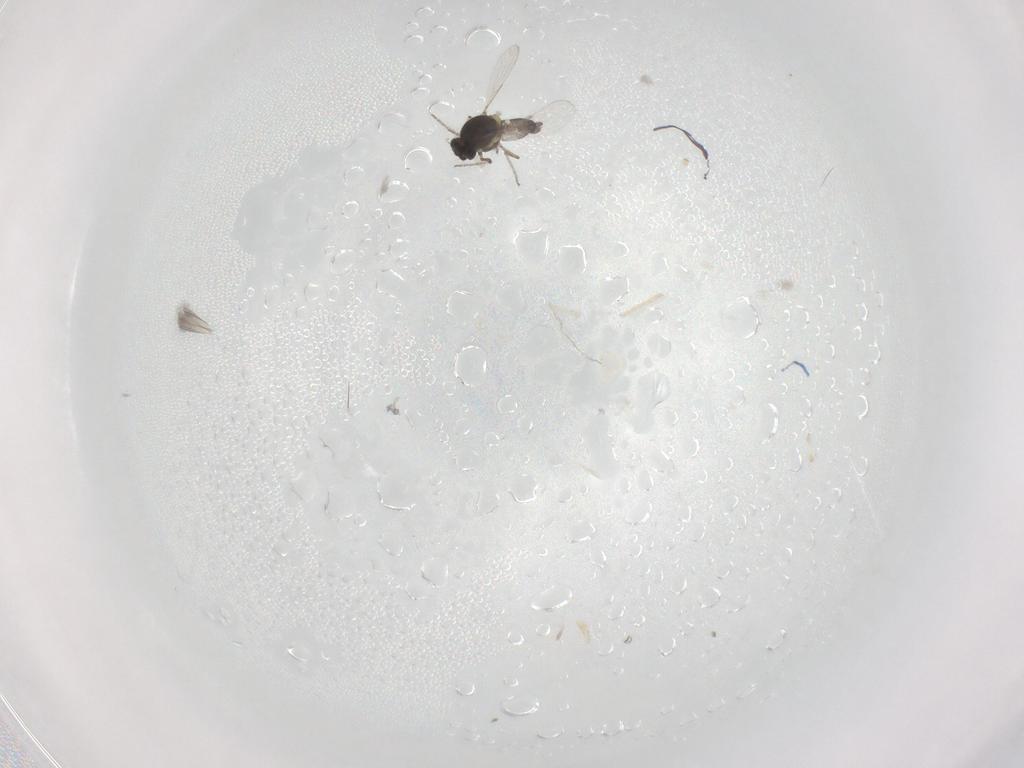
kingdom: Animalia
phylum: Arthropoda
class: Insecta
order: Diptera
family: Ceratopogonidae
